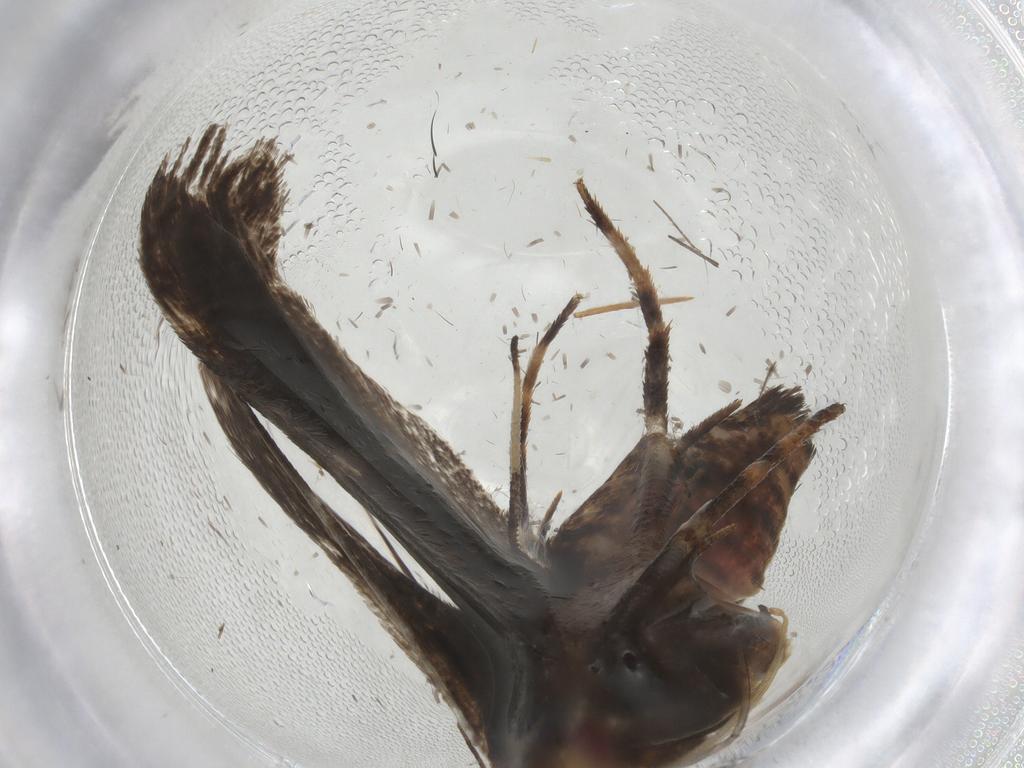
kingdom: Animalia
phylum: Arthropoda
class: Insecta
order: Lepidoptera
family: Gelechiidae
